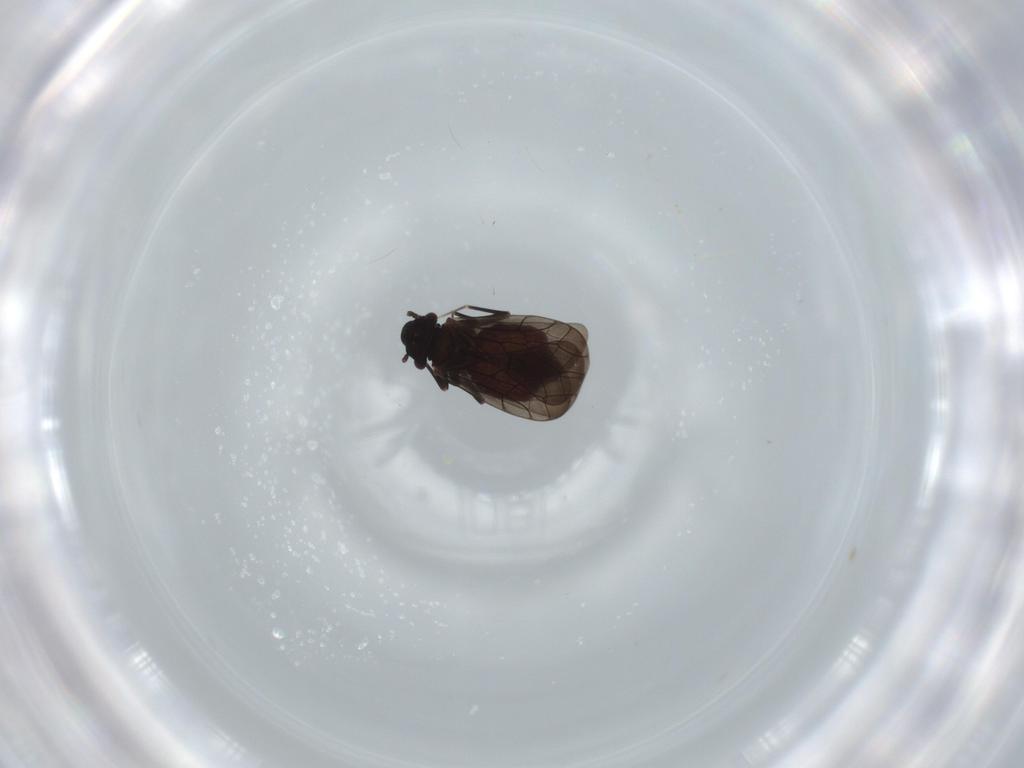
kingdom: Animalia
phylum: Arthropoda
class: Insecta
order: Psocodea
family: Lepidopsocidae
